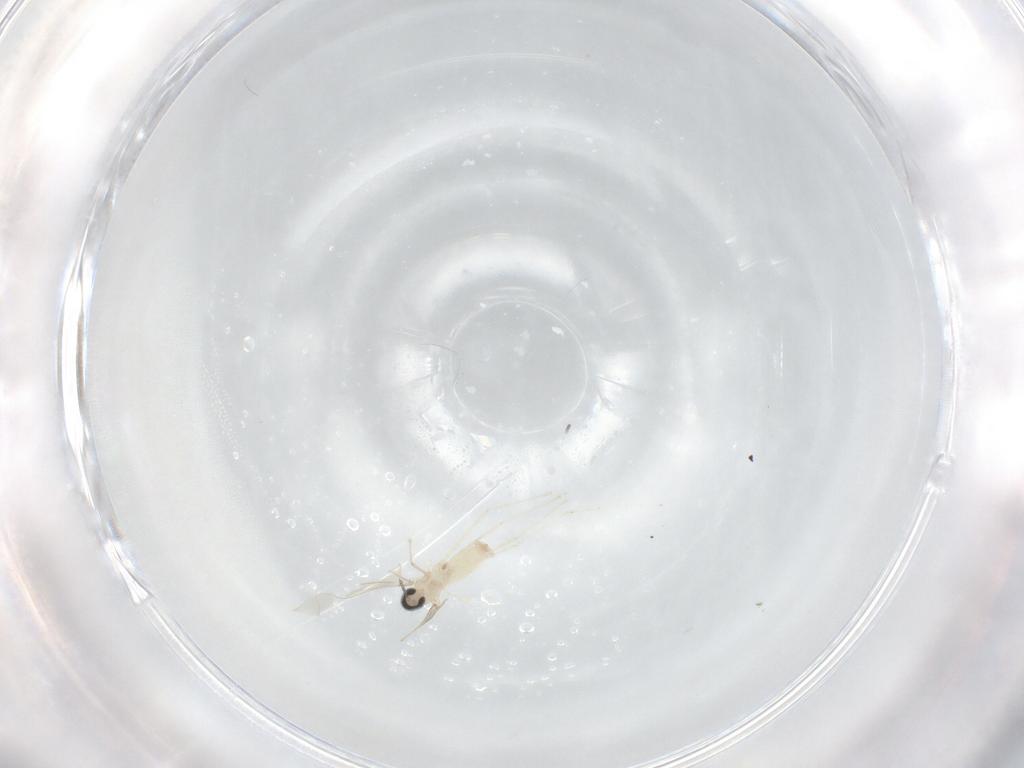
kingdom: Animalia
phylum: Arthropoda
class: Insecta
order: Diptera
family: Cecidomyiidae
